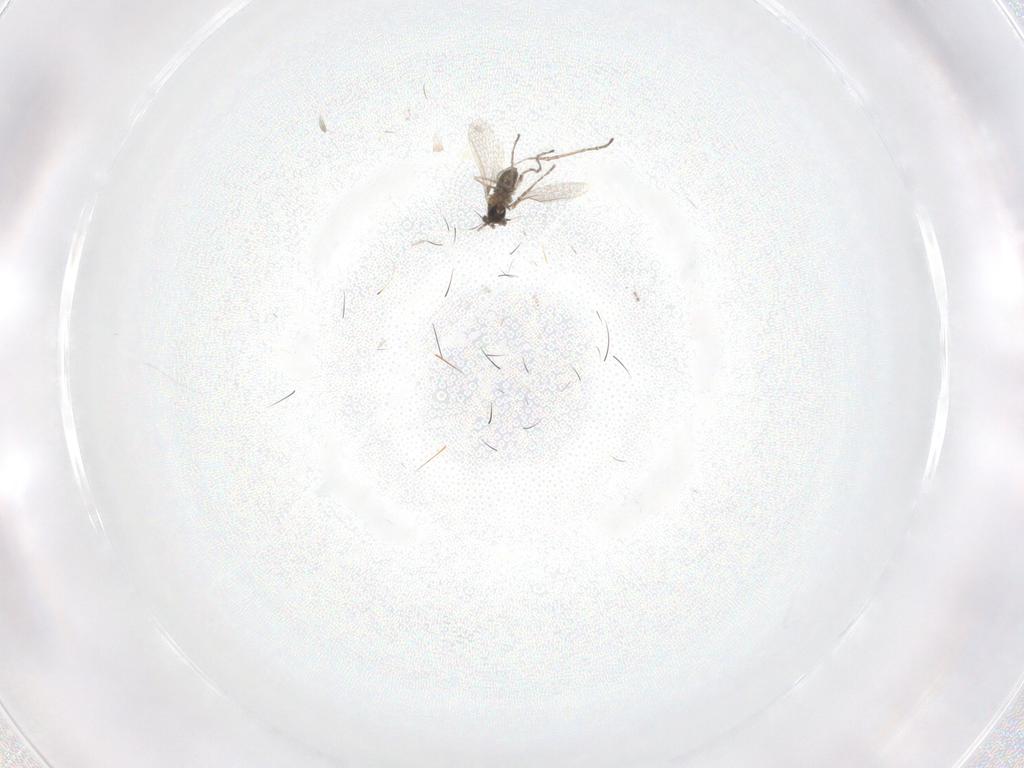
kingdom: Animalia
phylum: Arthropoda
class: Insecta
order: Diptera
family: Cecidomyiidae
